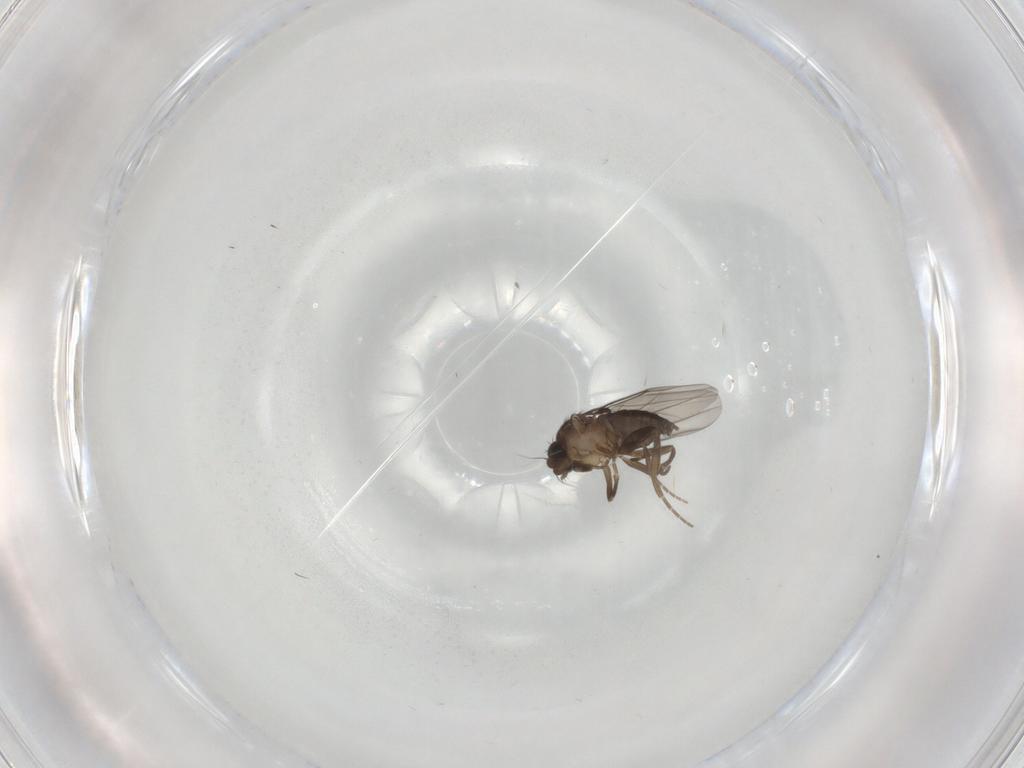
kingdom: Animalia
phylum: Arthropoda
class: Insecta
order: Diptera
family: Phoridae
